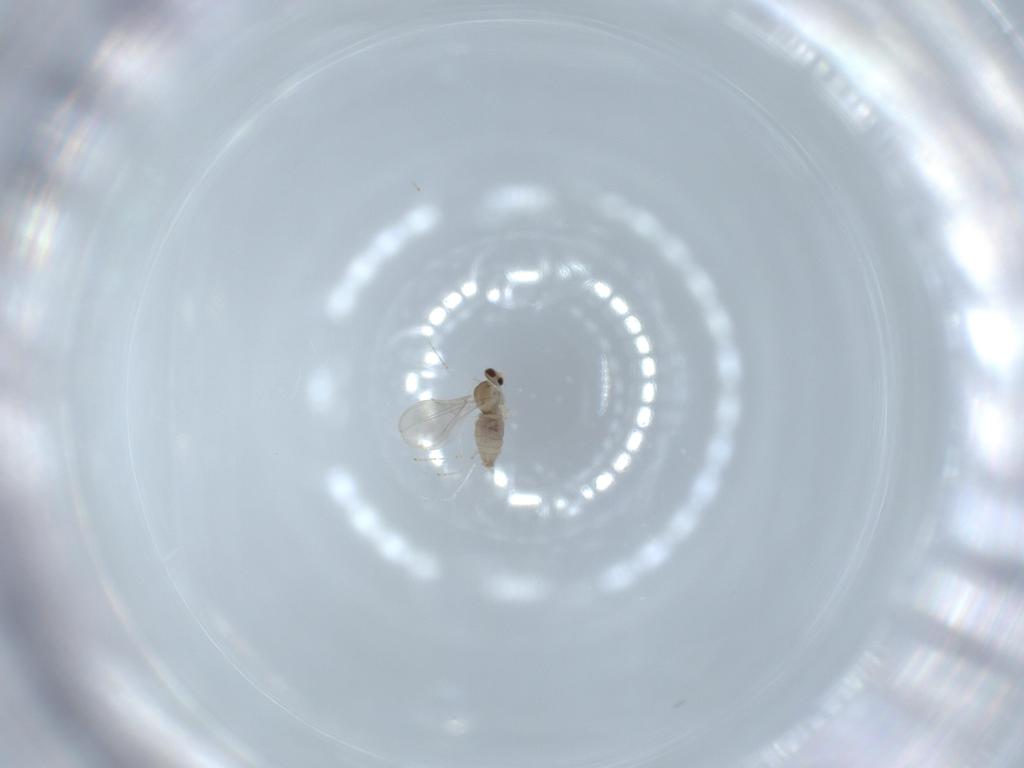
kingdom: Animalia
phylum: Arthropoda
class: Insecta
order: Diptera
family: Cecidomyiidae
